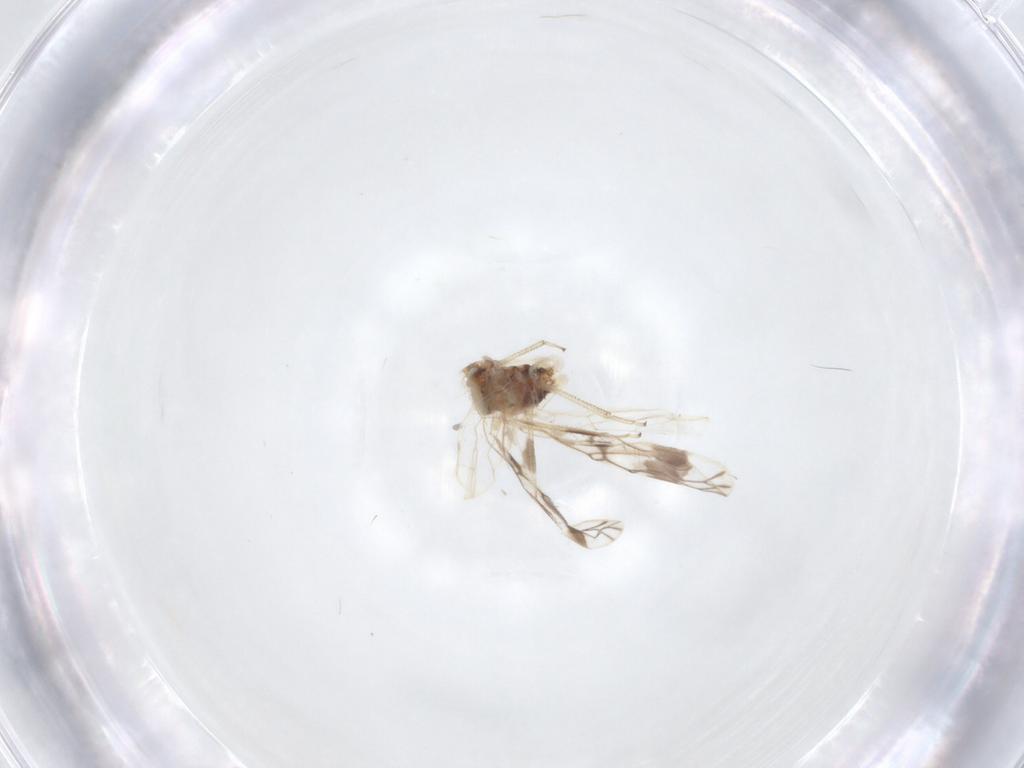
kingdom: Animalia
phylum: Arthropoda
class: Insecta
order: Psocodea
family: Pseudocaeciliidae
